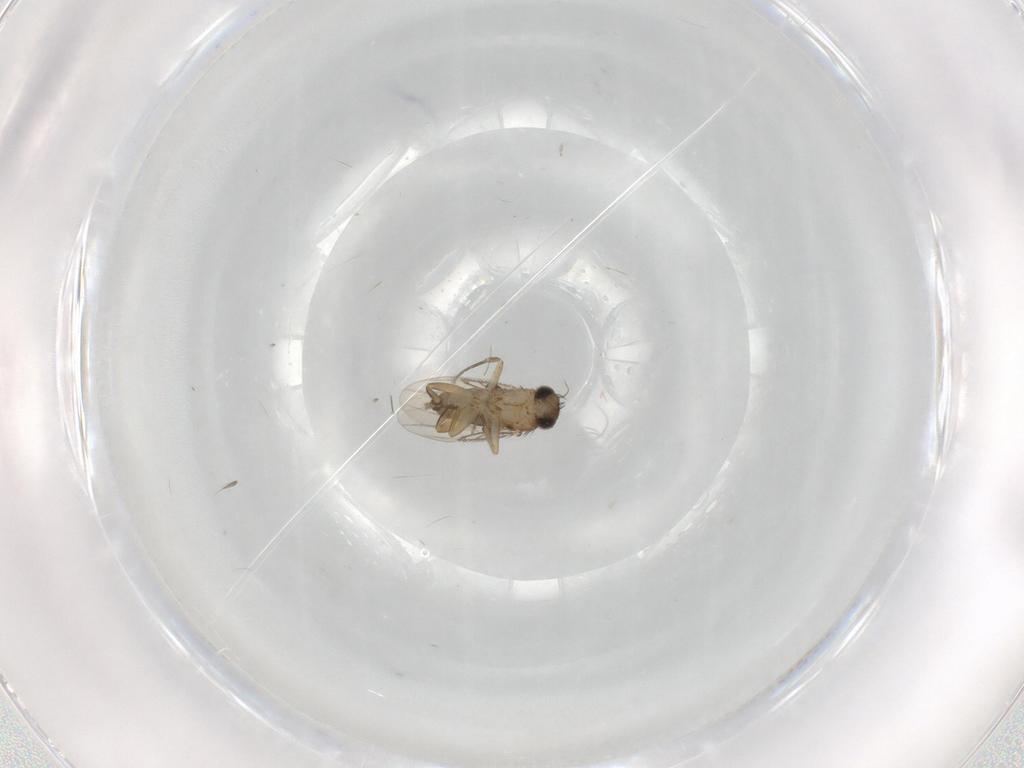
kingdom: Animalia
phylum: Arthropoda
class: Insecta
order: Diptera
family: Phoridae
